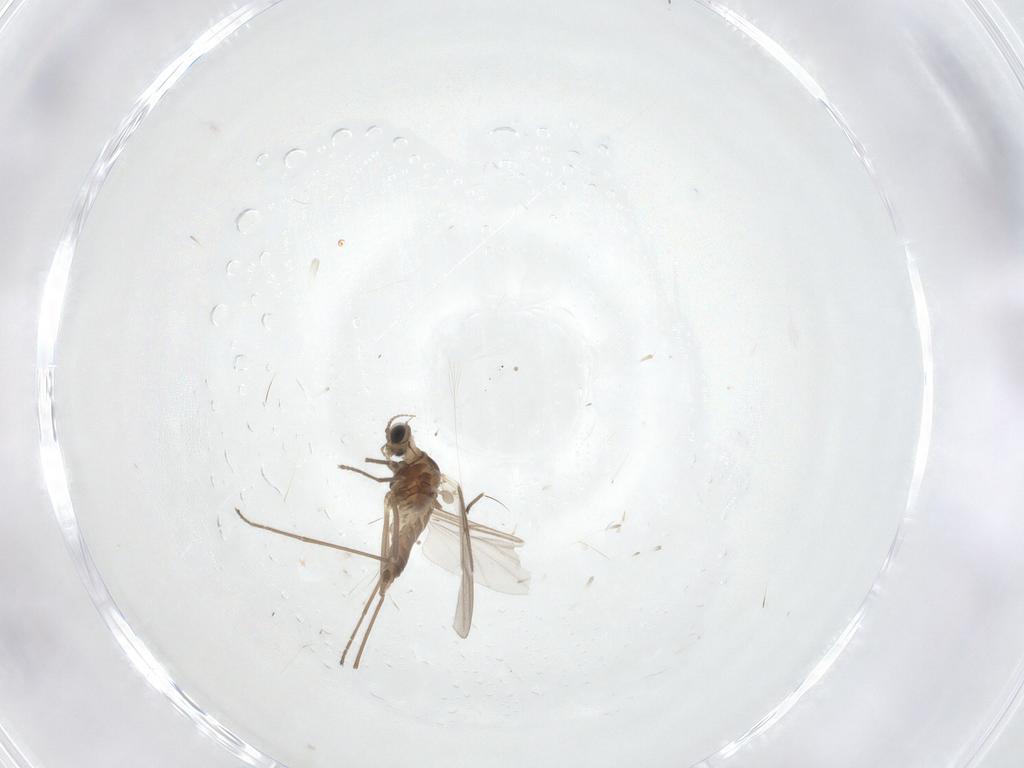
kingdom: Animalia
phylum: Arthropoda
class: Insecta
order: Diptera
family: Cecidomyiidae
